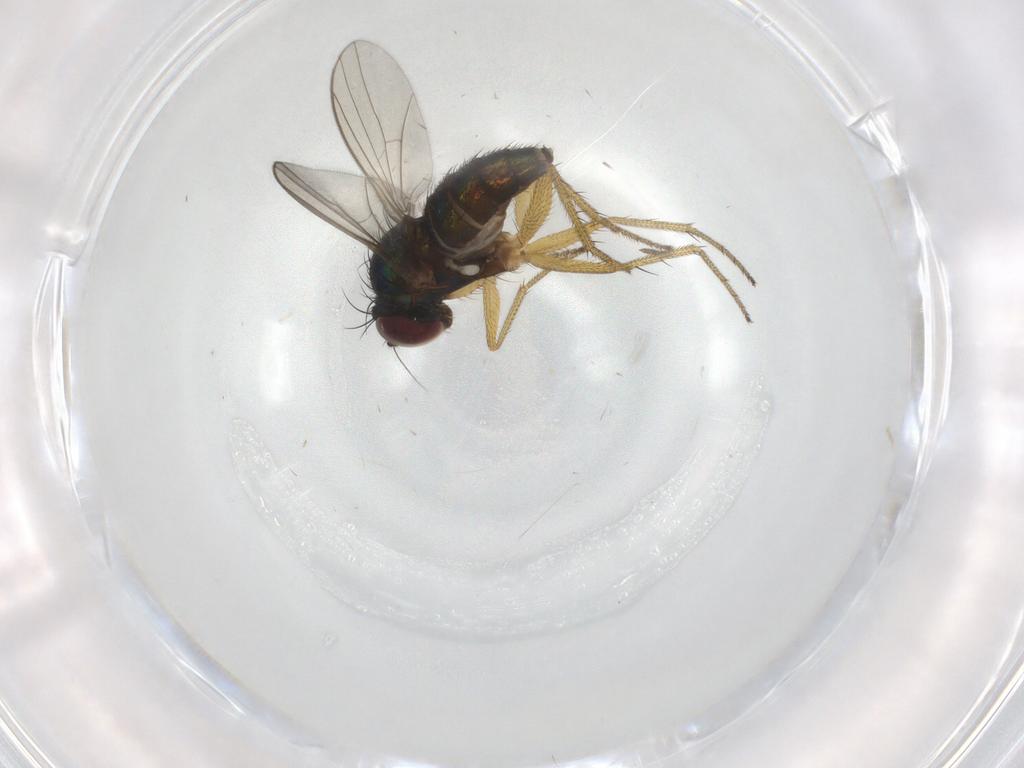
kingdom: Animalia
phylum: Arthropoda
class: Insecta
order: Diptera
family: Dolichopodidae
